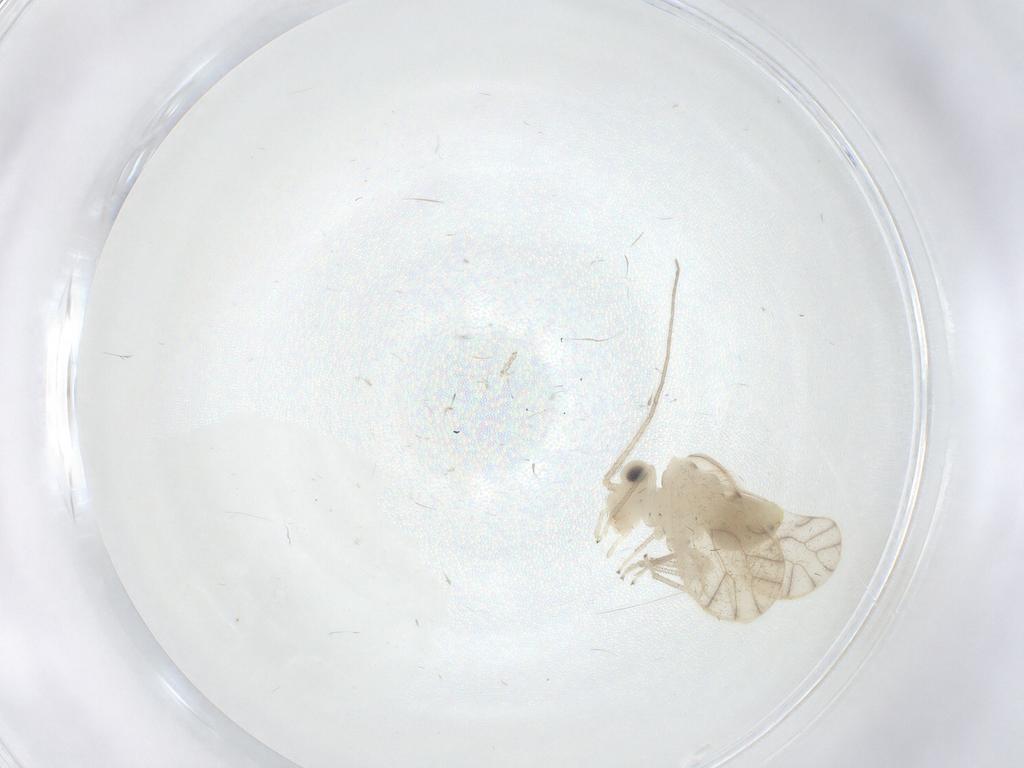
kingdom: Animalia
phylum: Arthropoda
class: Insecta
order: Psocodea
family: Caeciliusidae
